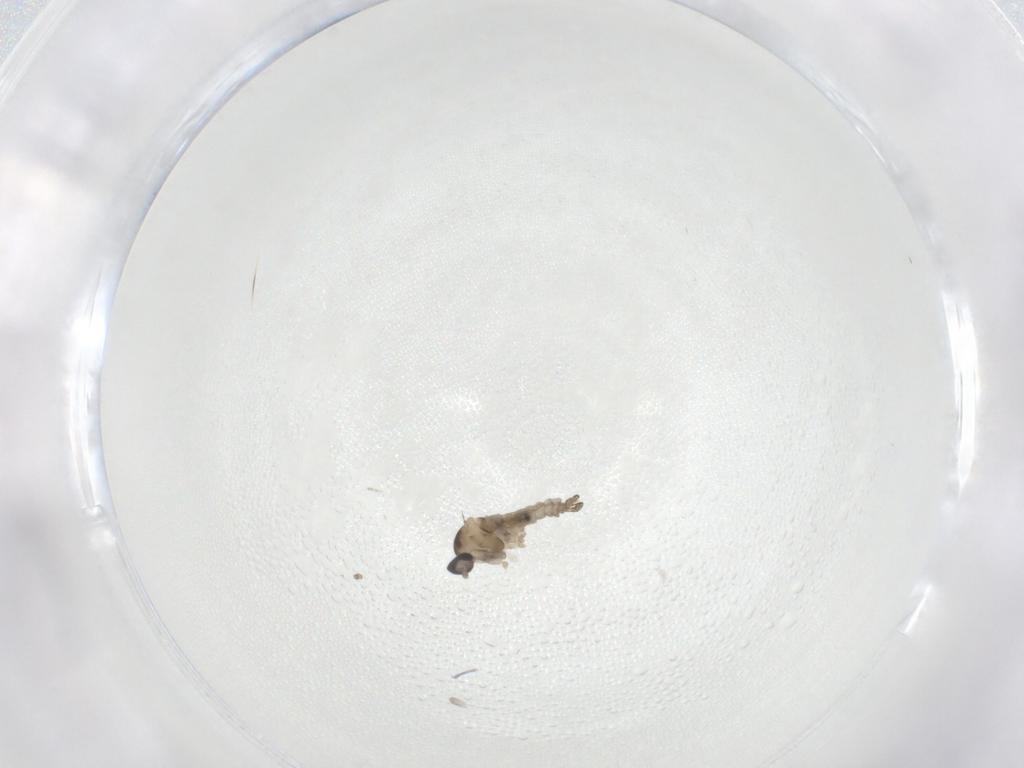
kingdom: Animalia
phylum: Arthropoda
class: Insecta
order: Diptera
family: Cecidomyiidae
